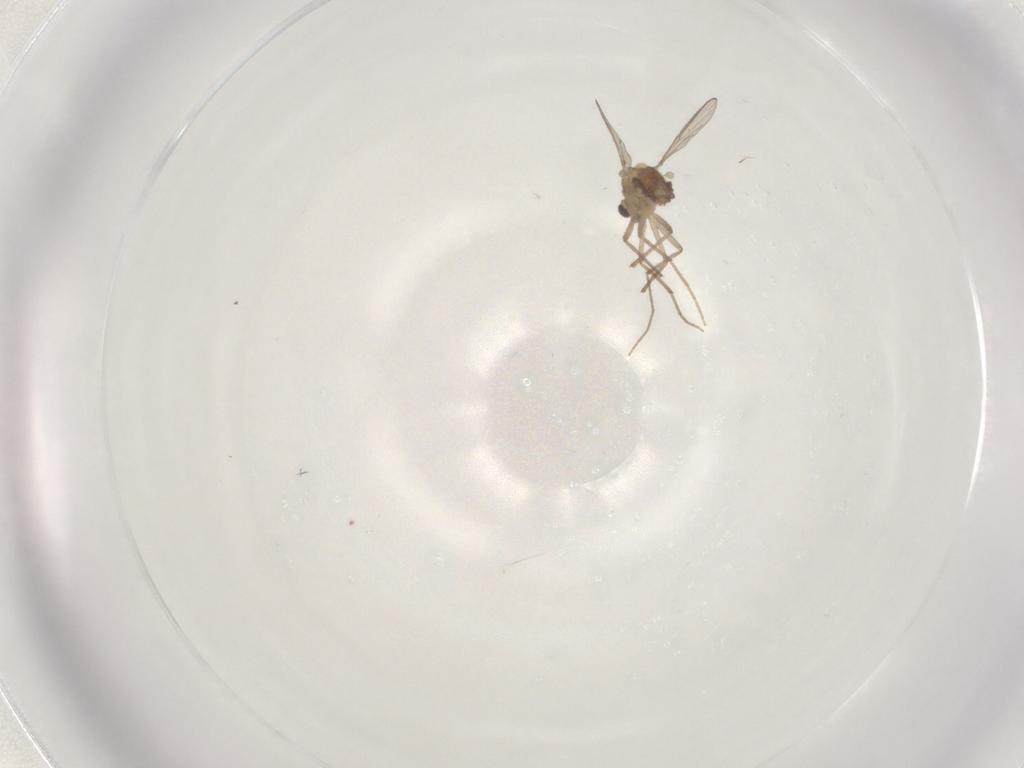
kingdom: Animalia
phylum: Arthropoda
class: Insecta
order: Diptera
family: Chironomidae
